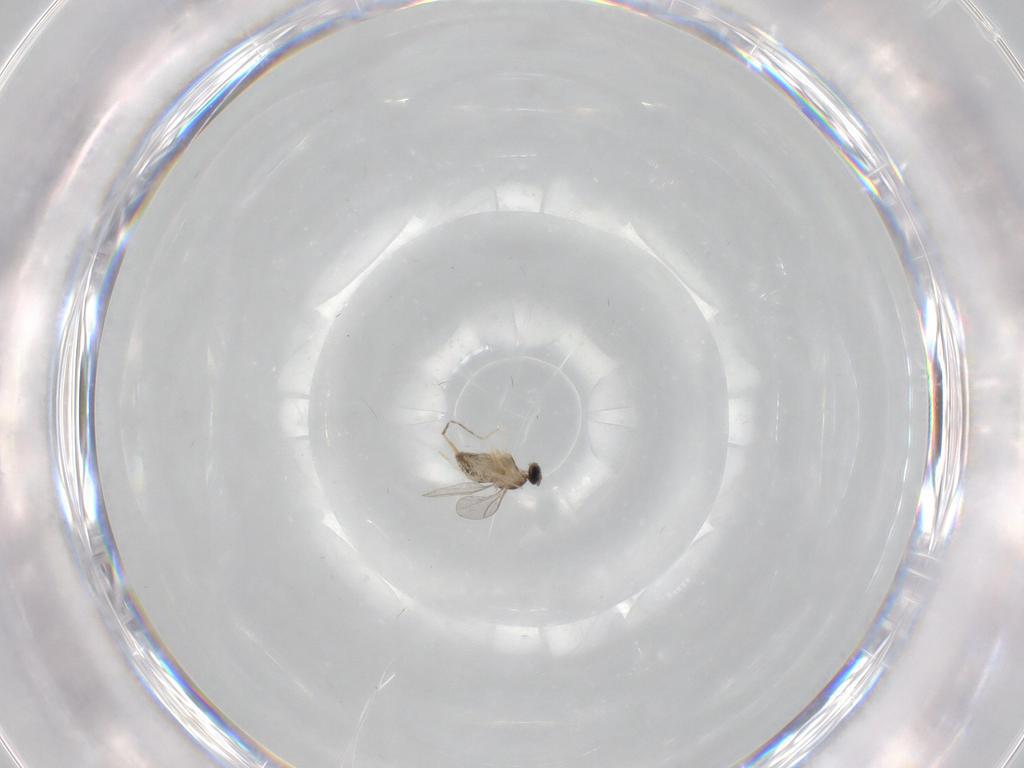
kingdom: Animalia
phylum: Arthropoda
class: Insecta
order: Diptera
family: Cecidomyiidae
